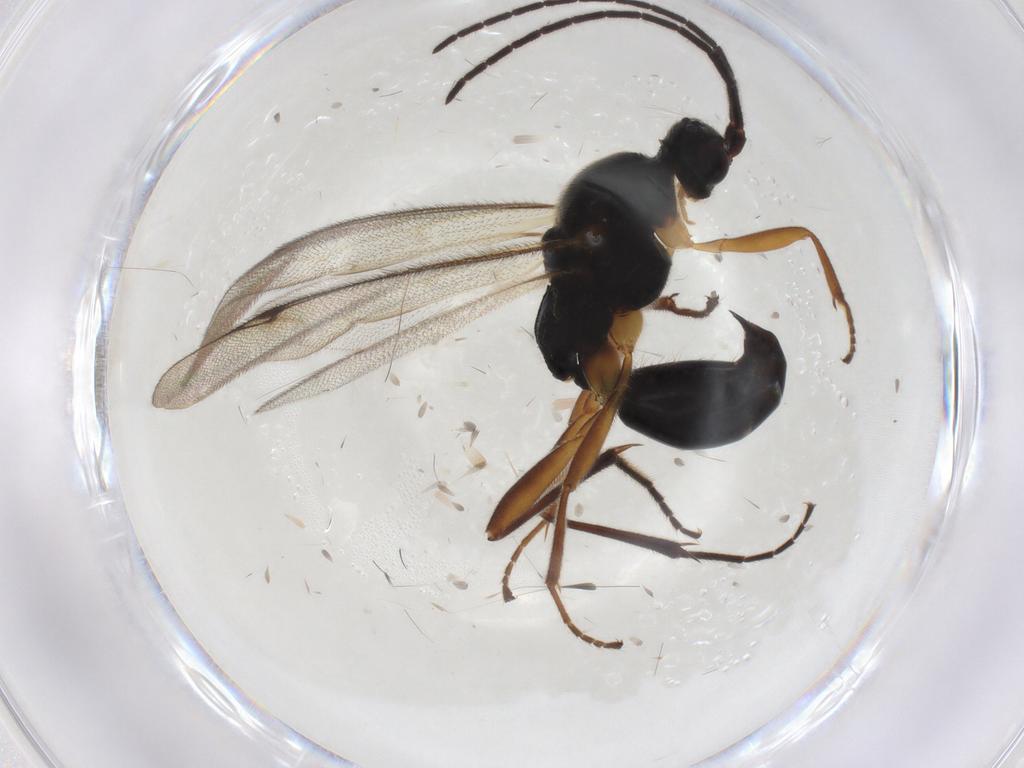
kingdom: Animalia
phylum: Arthropoda
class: Insecta
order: Hymenoptera
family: Proctotrupidae
